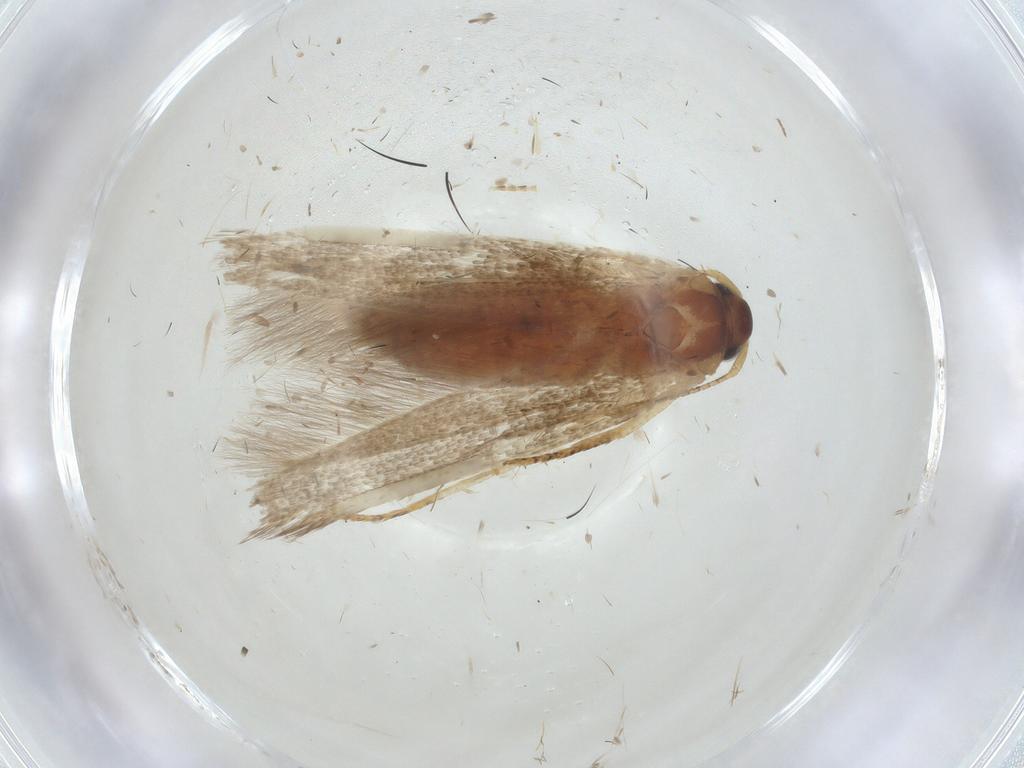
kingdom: Animalia
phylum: Arthropoda
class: Insecta
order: Lepidoptera
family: Coleophoridae
